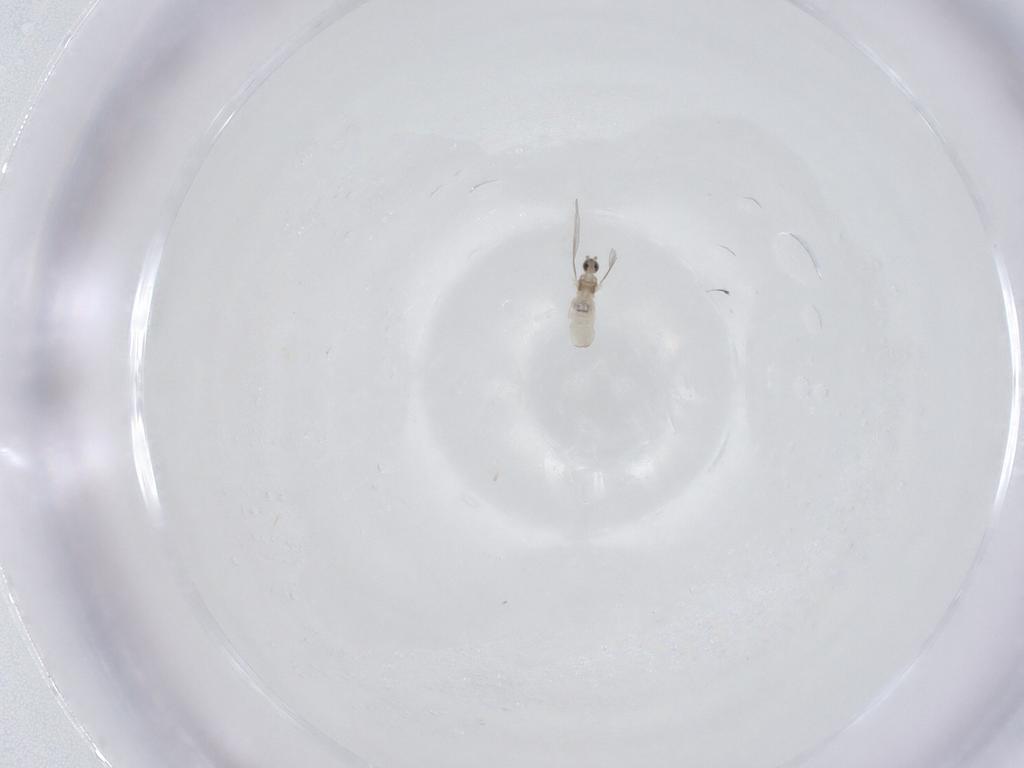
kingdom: Animalia
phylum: Arthropoda
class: Insecta
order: Diptera
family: Cecidomyiidae
